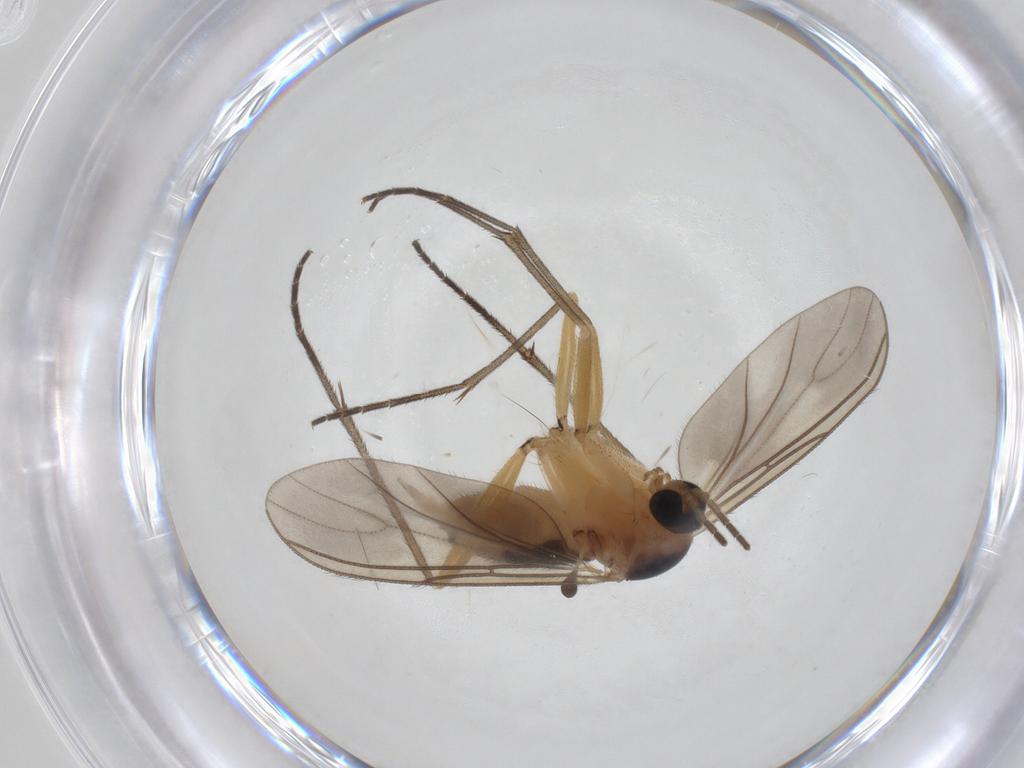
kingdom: Animalia
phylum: Arthropoda
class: Insecta
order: Diptera
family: Sciaridae
